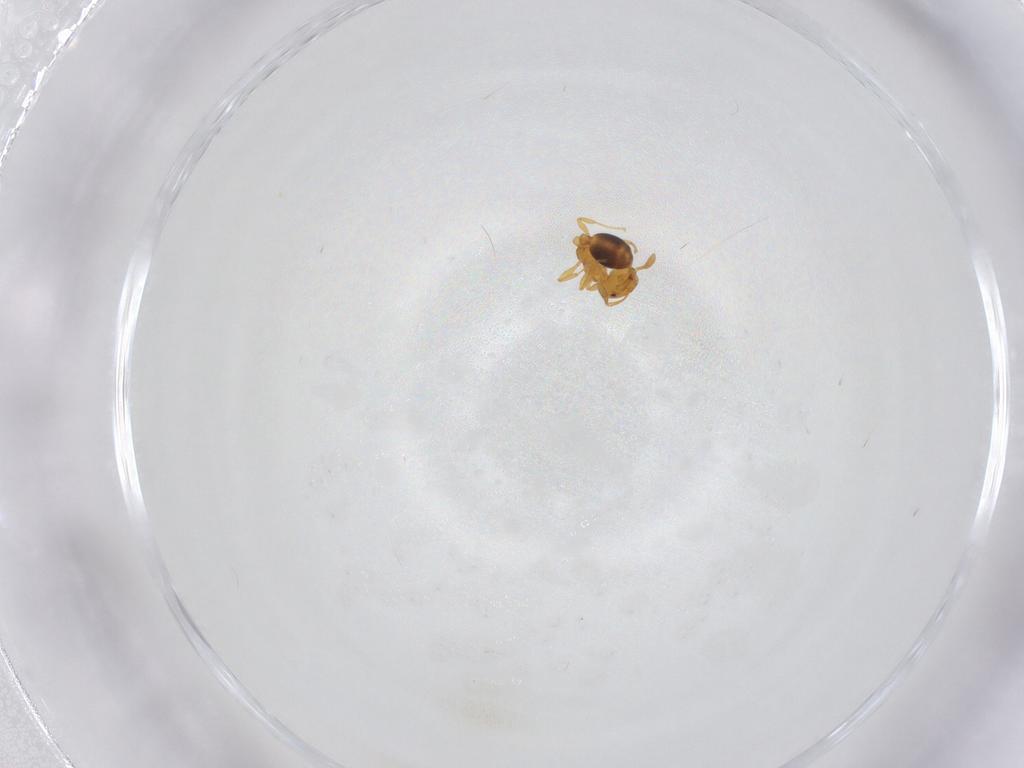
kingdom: Animalia
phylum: Arthropoda
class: Insecta
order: Hymenoptera
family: Formicidae
